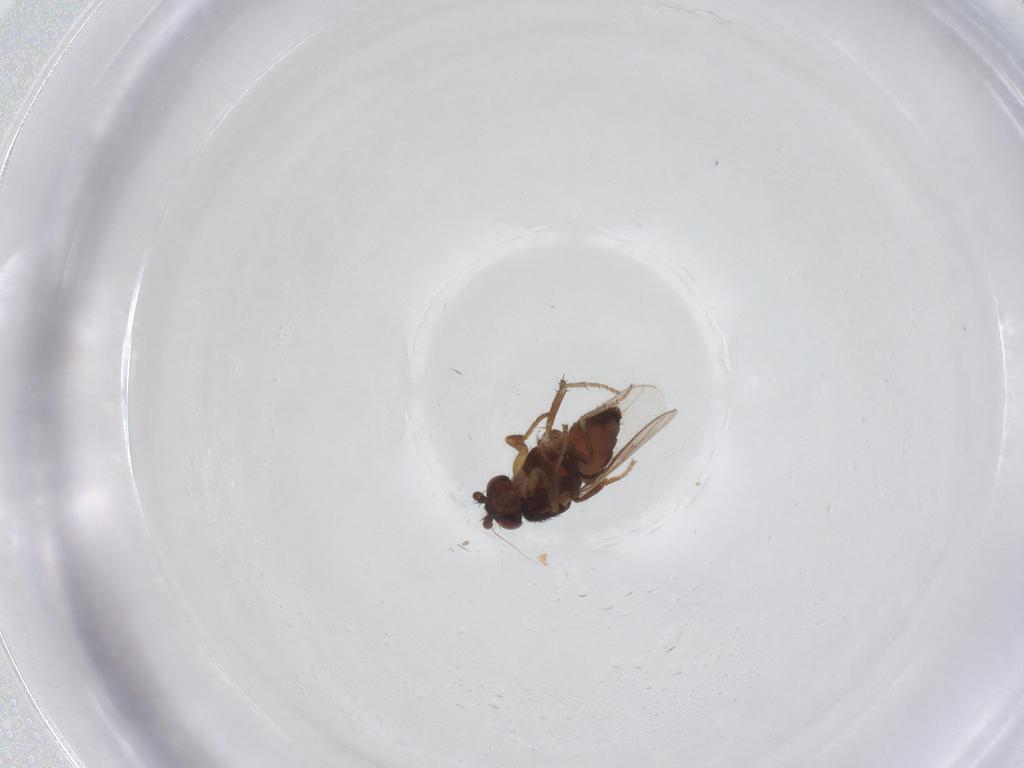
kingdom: Animalia
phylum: Arthropoda
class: Insecta
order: Diptera
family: Sphaeroceridae
